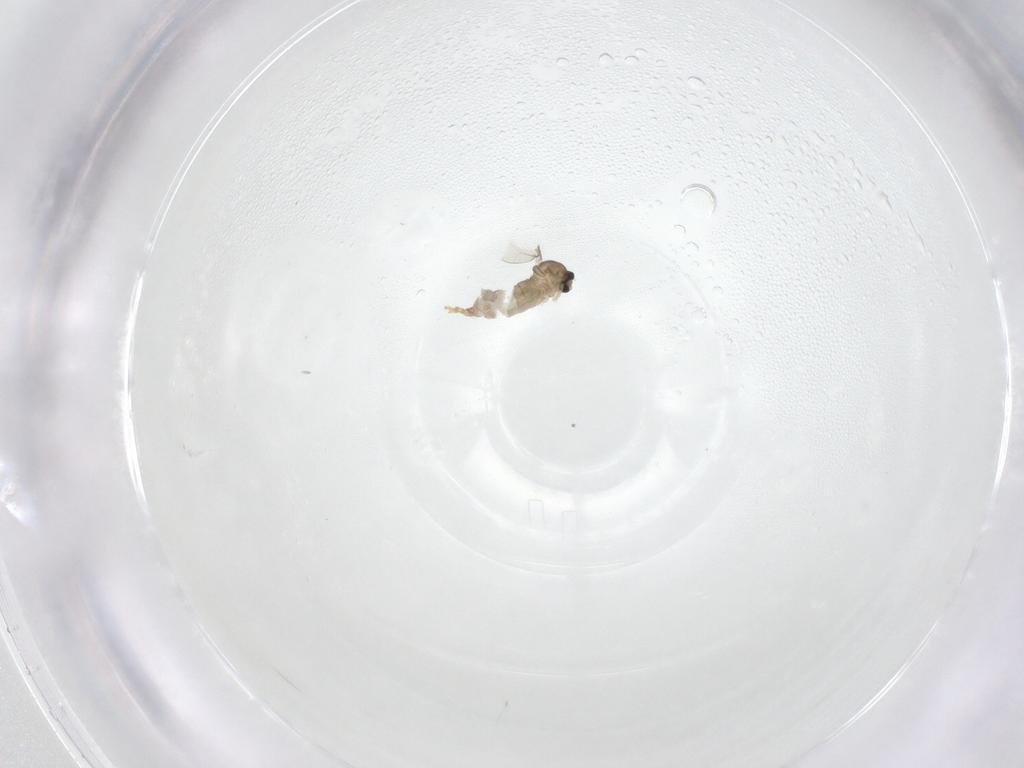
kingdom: Animalia
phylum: Arthropoda
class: Insecta
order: Diptera
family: Cecidomyiidae
